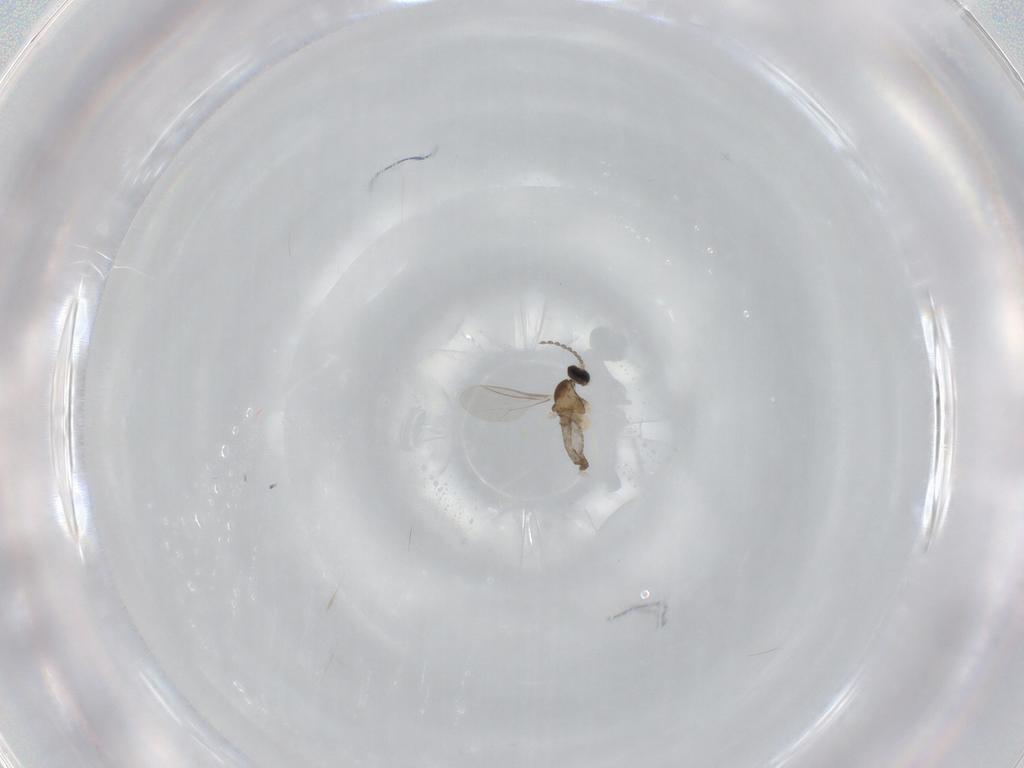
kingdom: Animalia
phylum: Arthropoda
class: Insecta
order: Diptera
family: Cecidomyiidae
